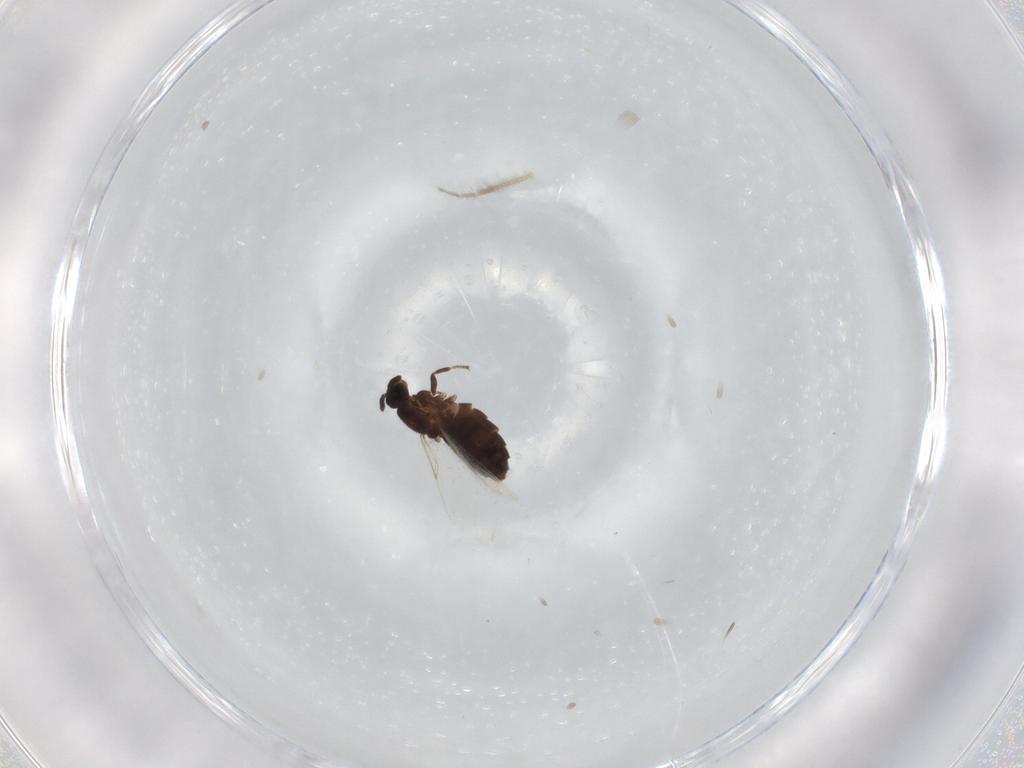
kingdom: Animalia
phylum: Arthropoda
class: Insecta
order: Diptera
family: Scatopsidae
